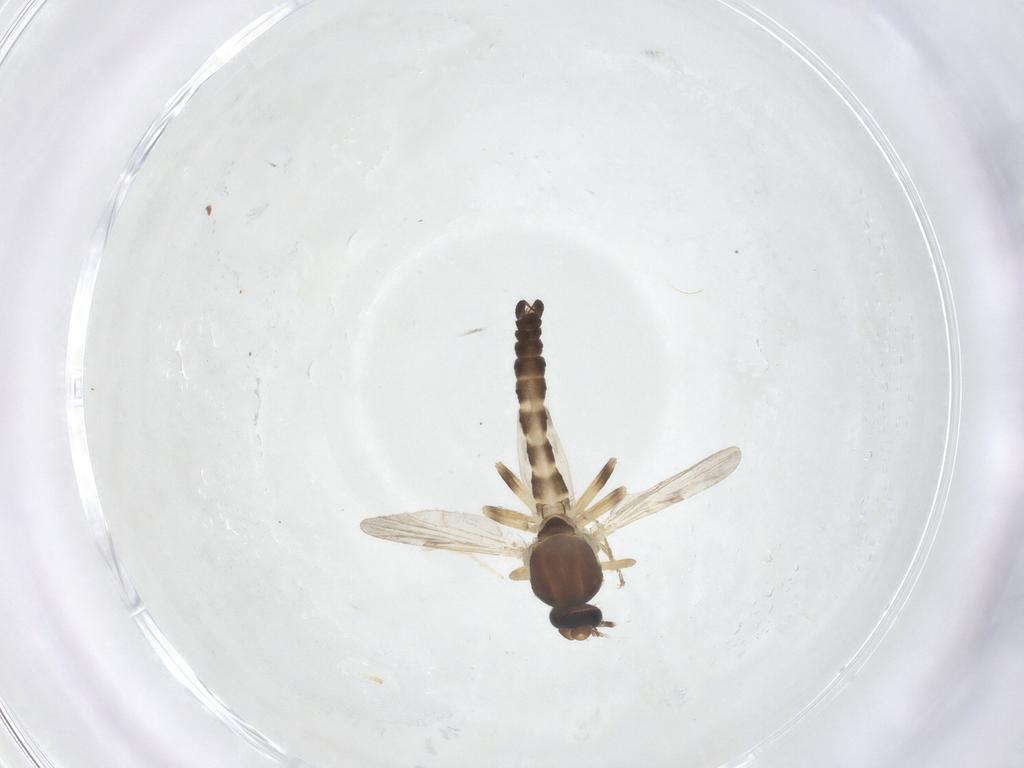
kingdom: Animalia
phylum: Arthropoda
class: Insecta
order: Diptera
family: Ceratopogonidae
